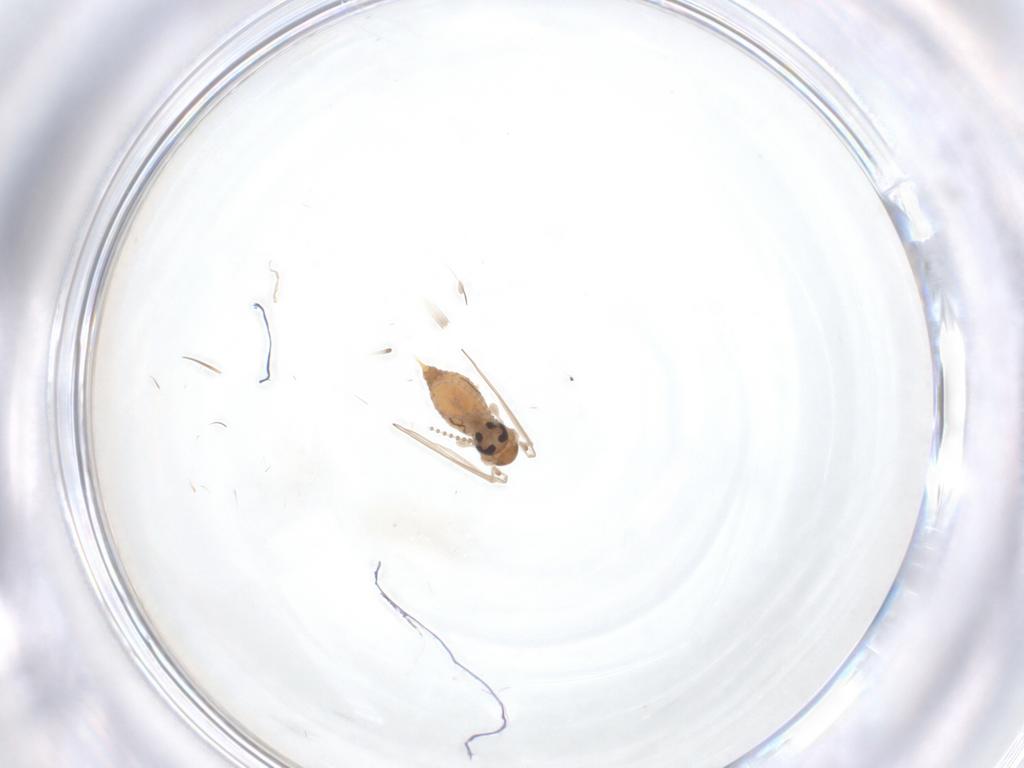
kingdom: Animalia
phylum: Arthropoda
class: Insecta
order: Diptera
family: Psychodidae
